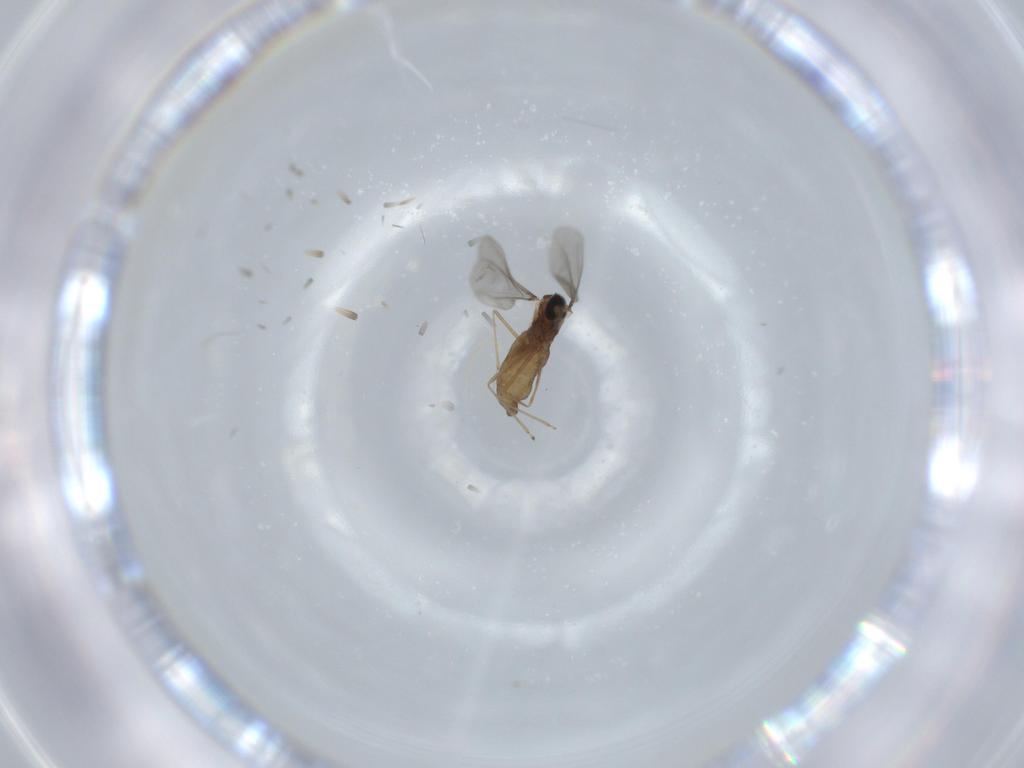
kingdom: Animalia
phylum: Arthropoda
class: Insecta
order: Diptera
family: Cecidomyiidae
